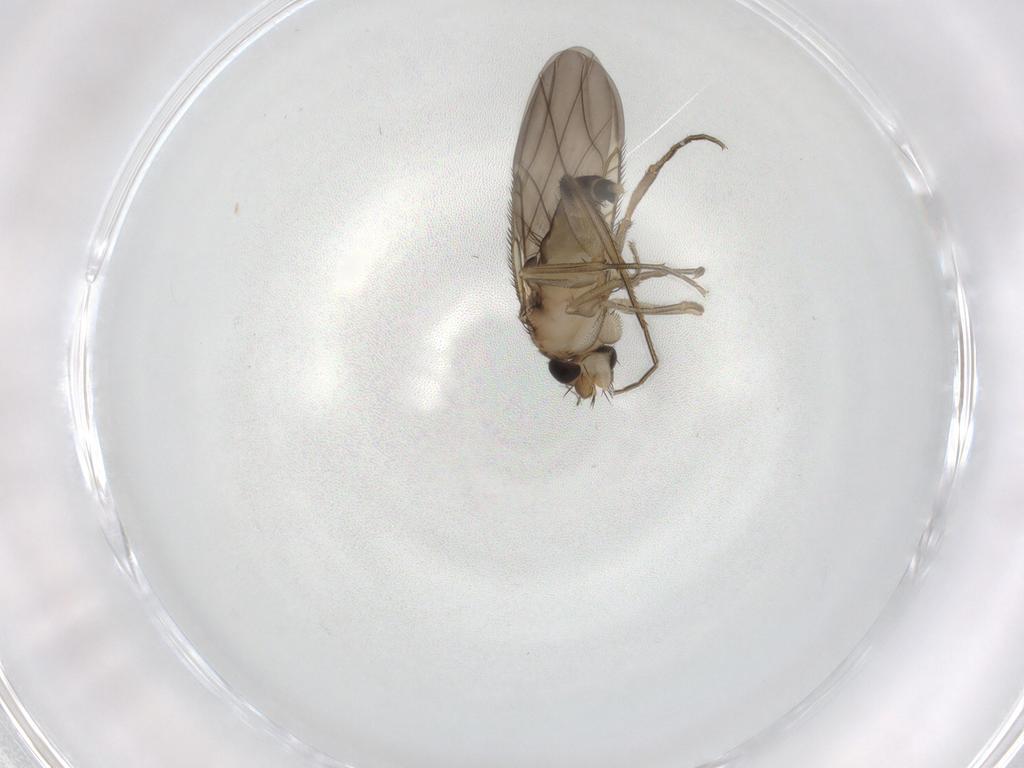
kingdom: Animalia
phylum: Arthropoda
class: Insecta
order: Diptera
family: Phoridae
